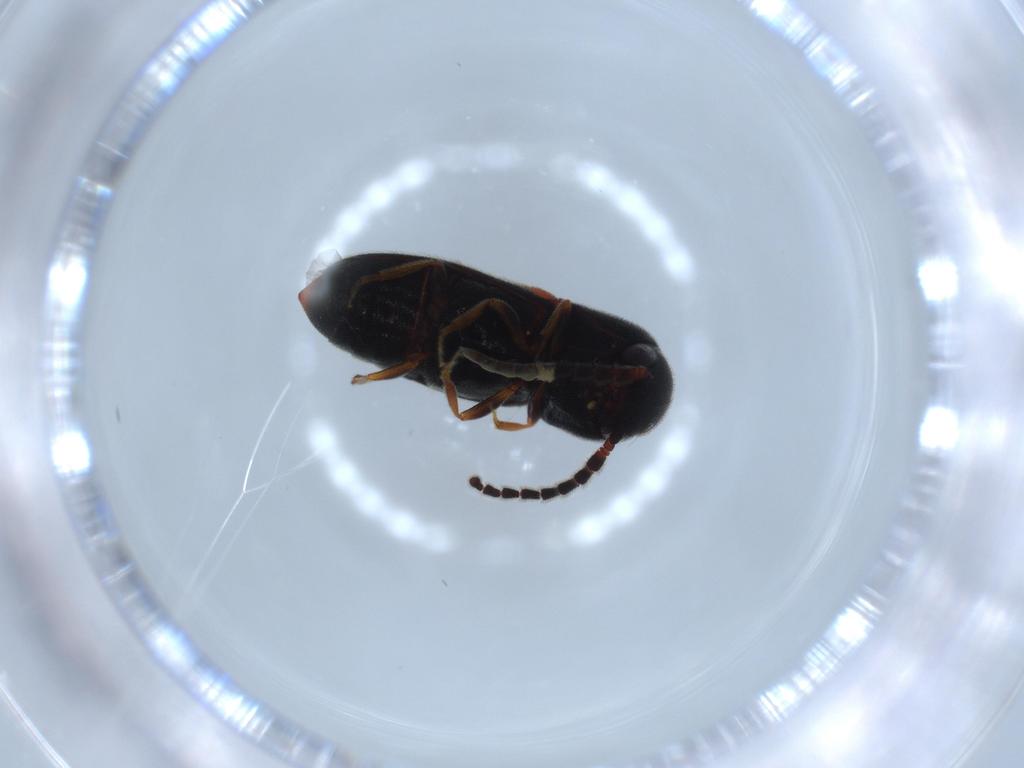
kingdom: Animalia
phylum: Arthropoda
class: Insecta
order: Coleoptera
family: Eucnemidae
